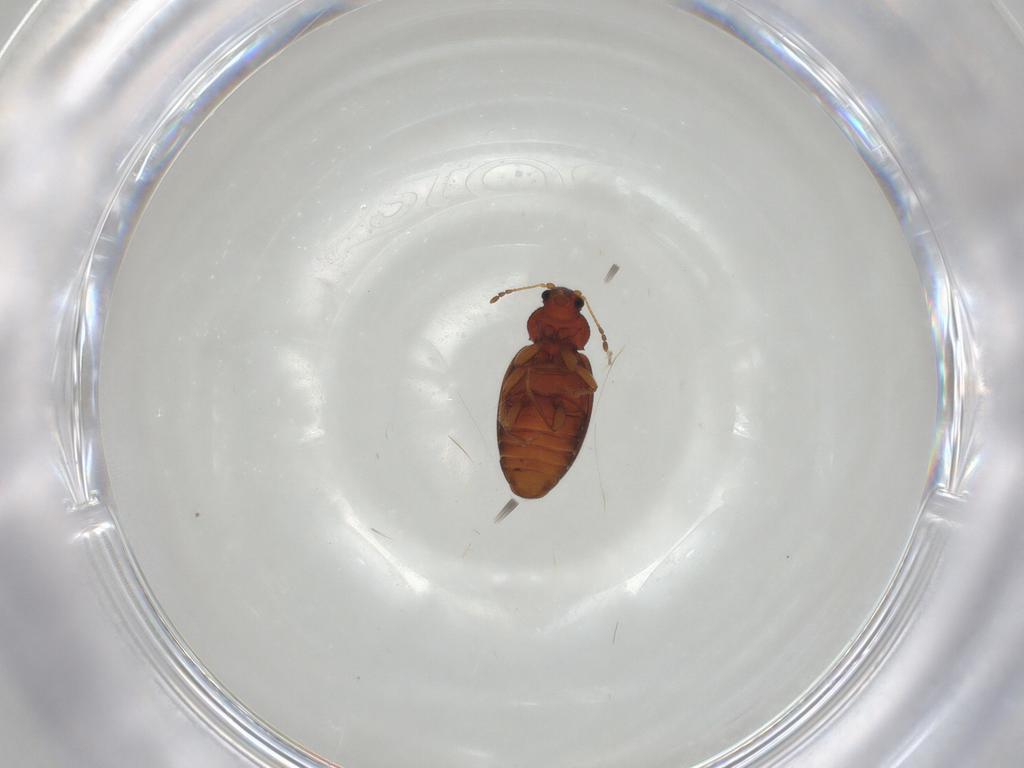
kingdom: Animalia
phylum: Arthropoda
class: Insecta
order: Coleoptera
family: Latridiidae
